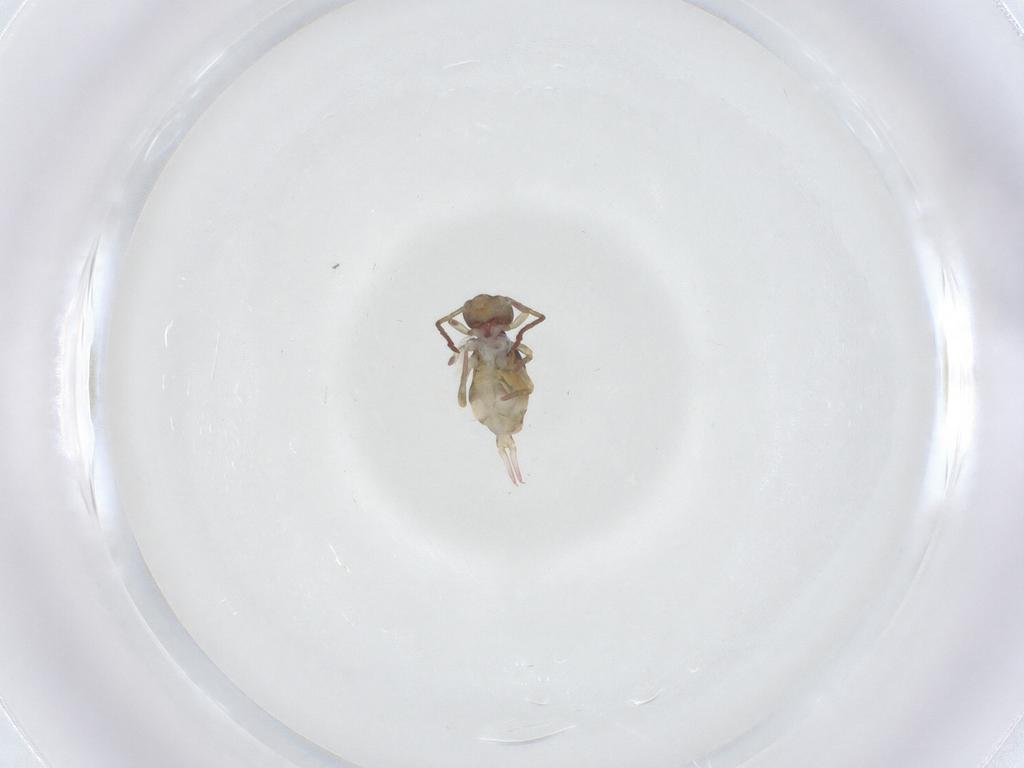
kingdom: Animalia
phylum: Arthropoda
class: Collembola
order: Symphypleona
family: Dicyrtomidae
